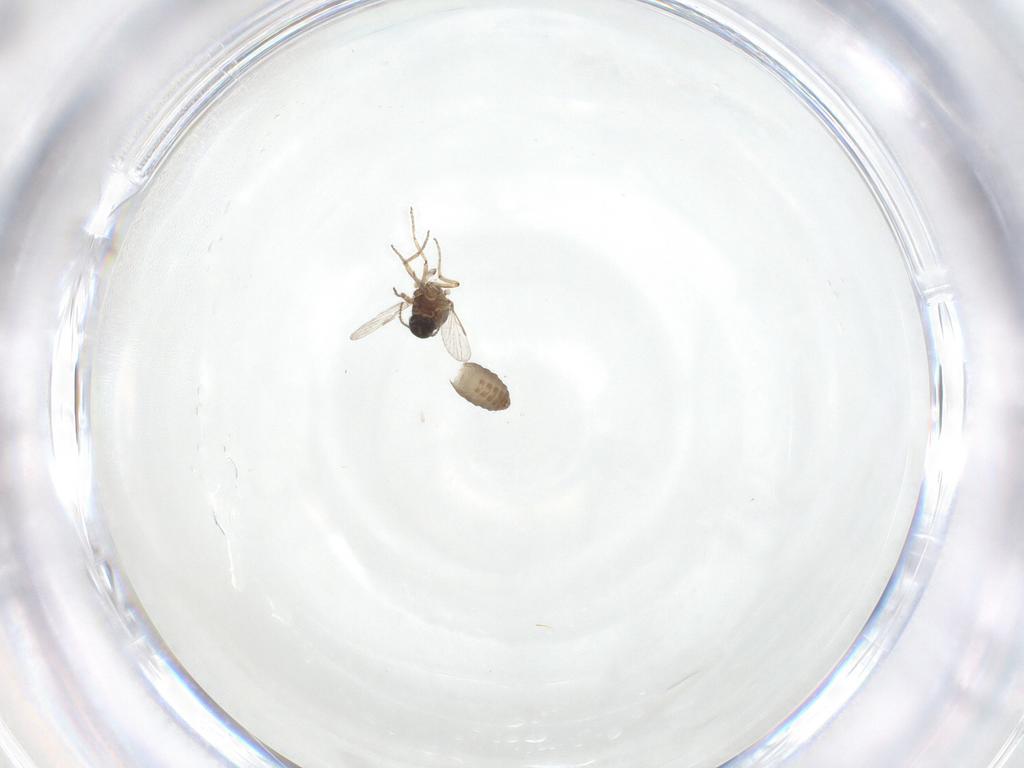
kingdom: Animalia
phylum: Arthropoda
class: Insecta
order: Diptera
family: Ceratopogonidae
